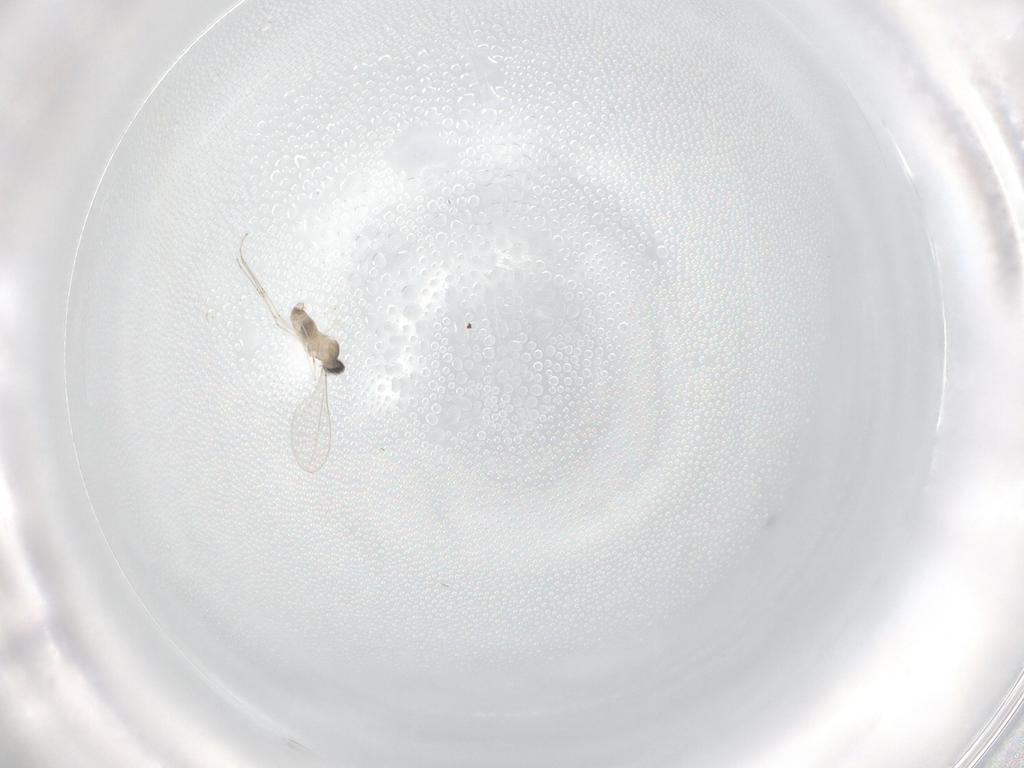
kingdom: Animalia
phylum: Arthropoda
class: Insecta
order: Diptera
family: Cecidomyiidae
